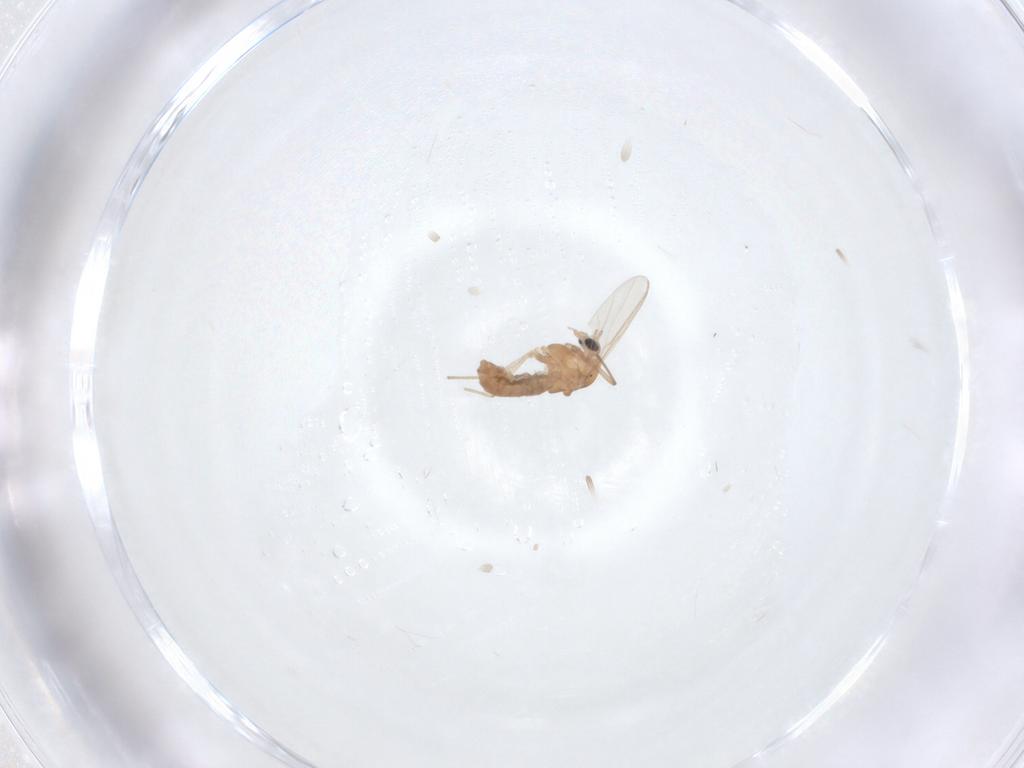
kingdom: Animalia
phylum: Arthropoda
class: Insecta
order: Diptera
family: Chironomidae
